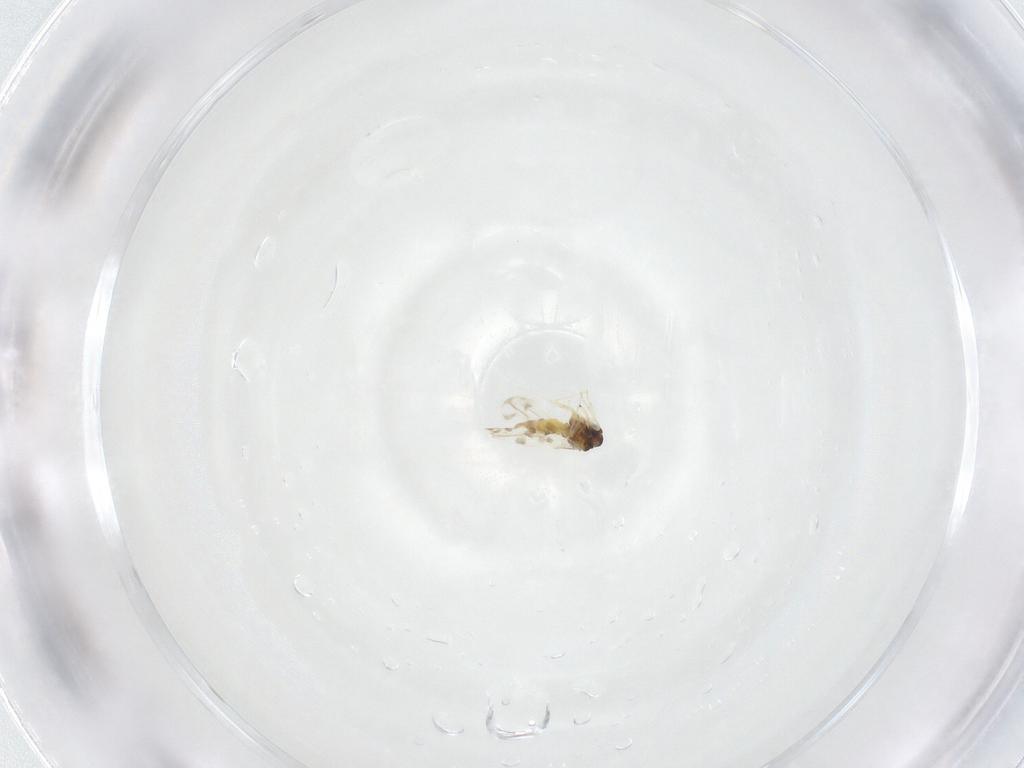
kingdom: Animalia
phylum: Arthropoda
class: Insecta
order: Hemiptera
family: Aleyrodidae
